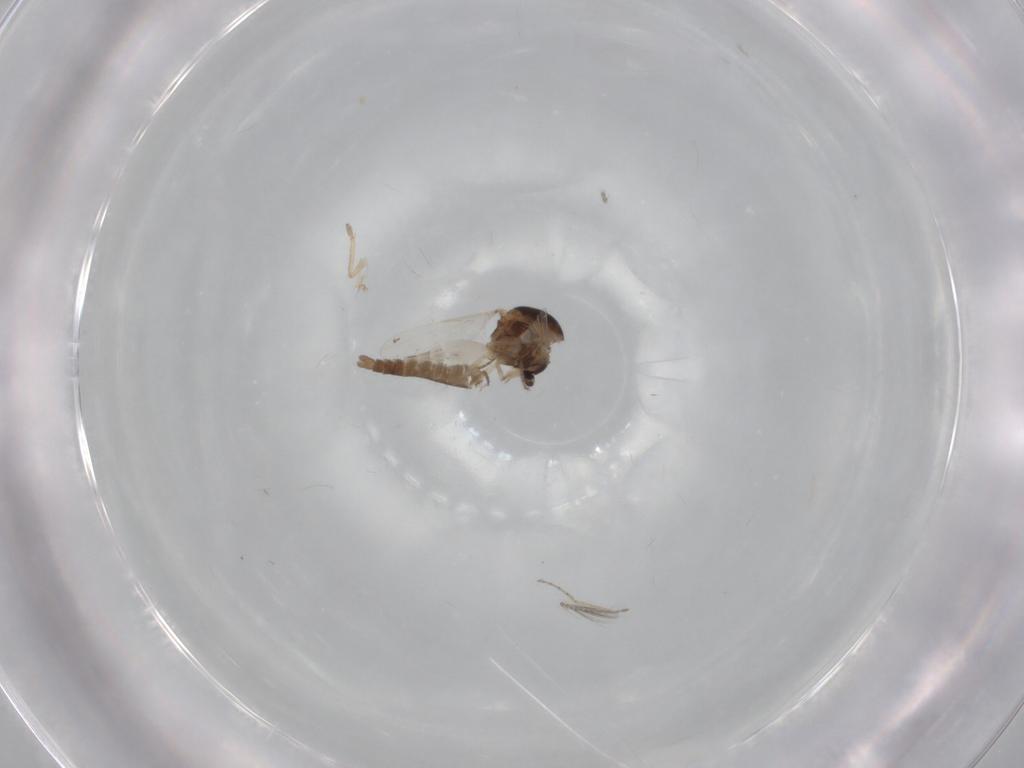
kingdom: Animalia
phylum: Arthropoda
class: Insecta
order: Diptera
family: Ceratopogonidae
